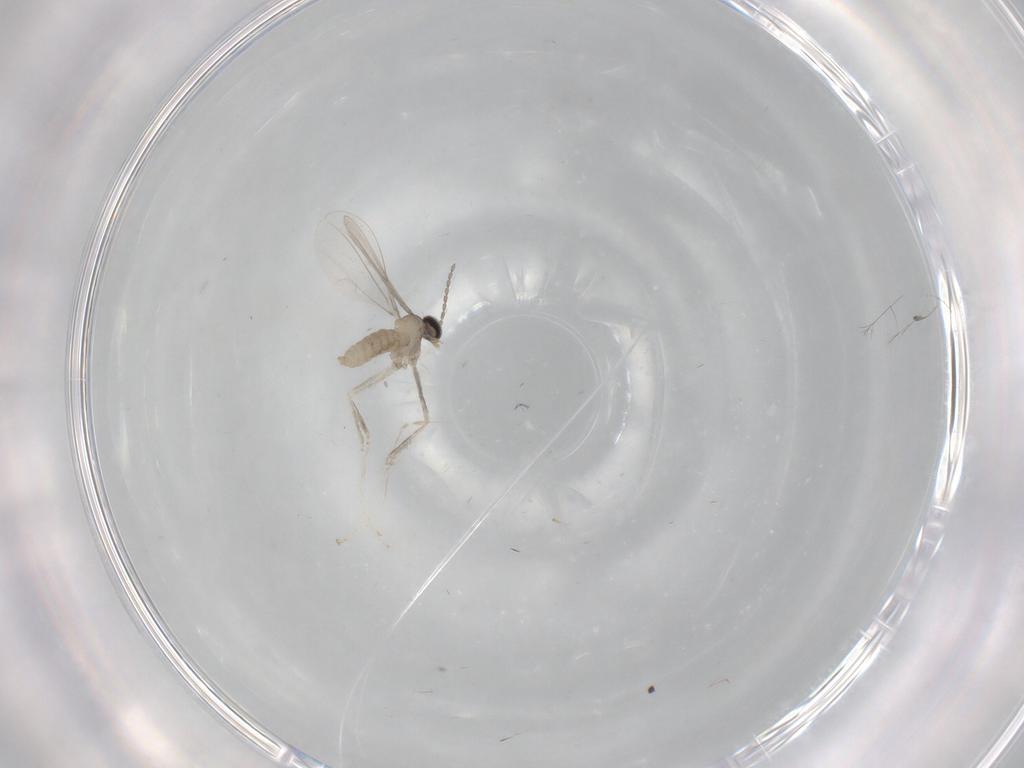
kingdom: Animalia
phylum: Arthropoda
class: Insecta
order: Diptera
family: Cecidomyiidae
